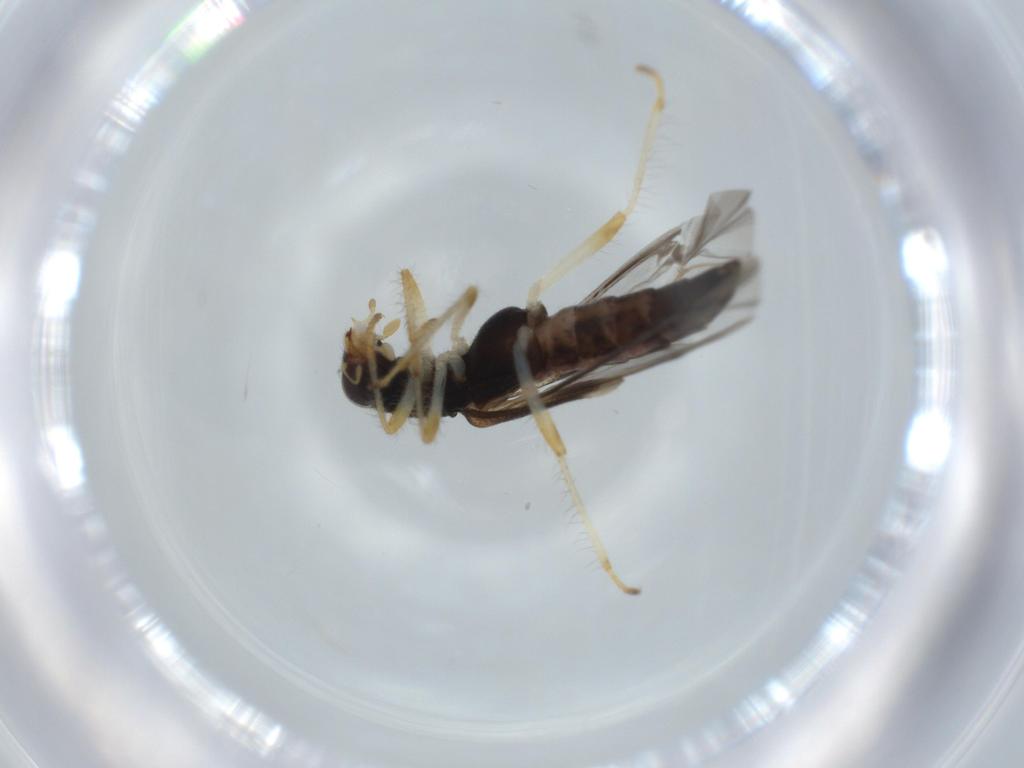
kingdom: Animalia
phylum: Arthropoda
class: Insecta
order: Coleoptera
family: Cleridae
